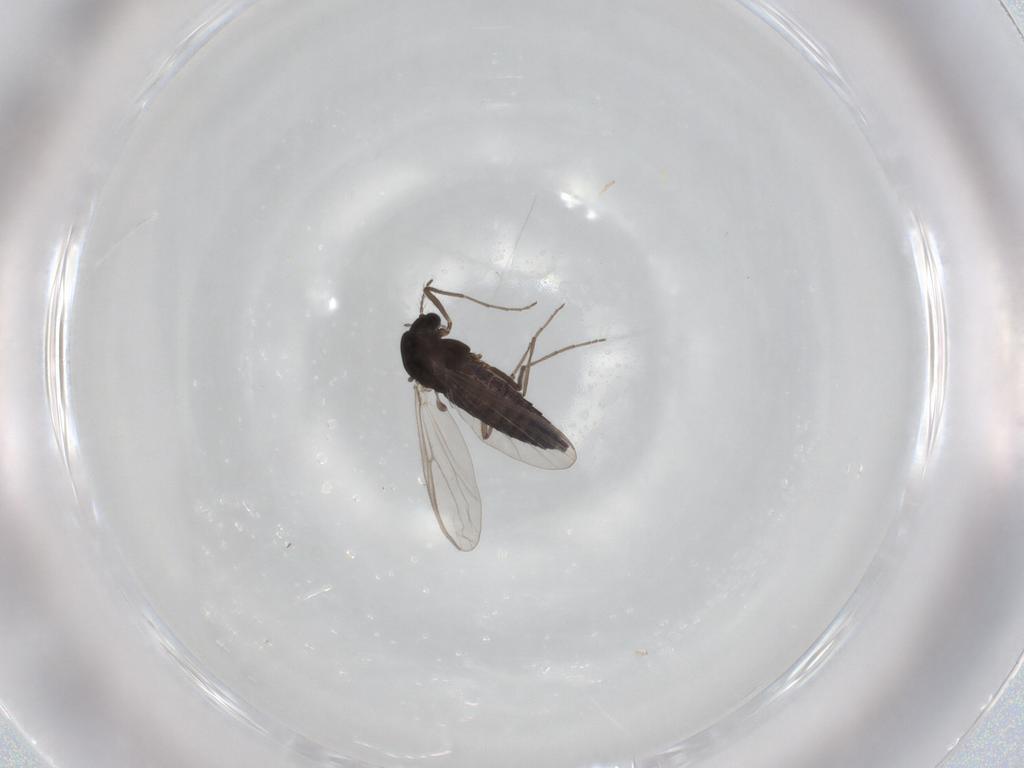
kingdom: Animalia
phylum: Arthropoda
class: Insecta
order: Diptera
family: Chironomidae
